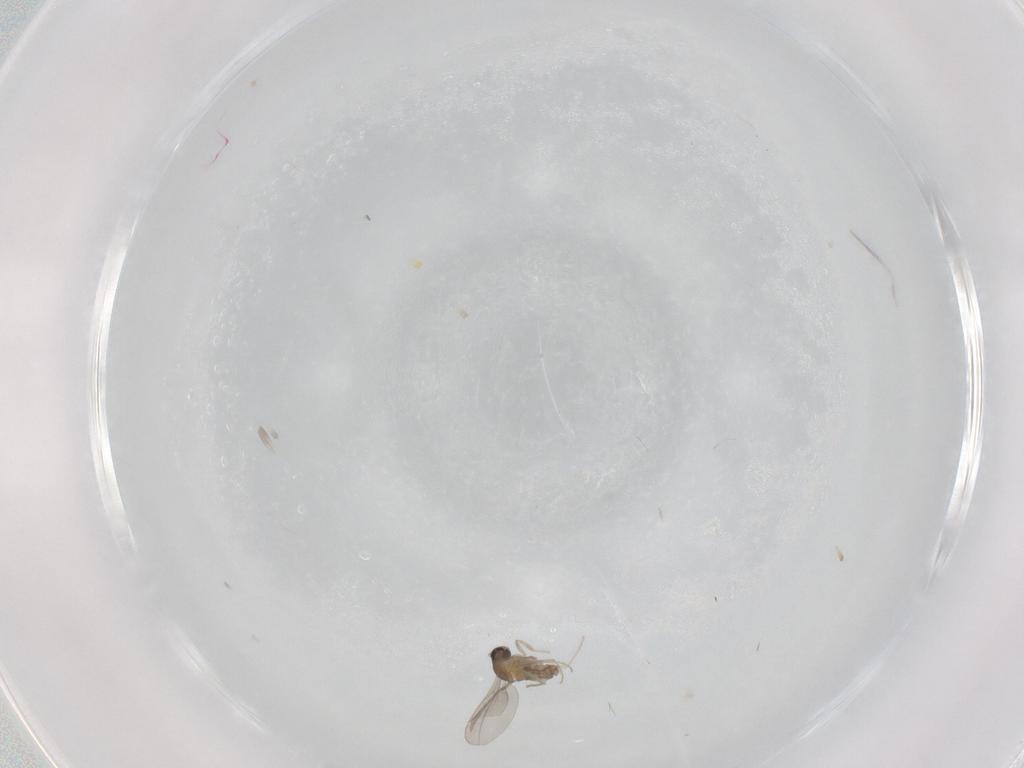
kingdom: Animalia
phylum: Arthropoda
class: Insecta
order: Diptera
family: Cecidomyiidae
